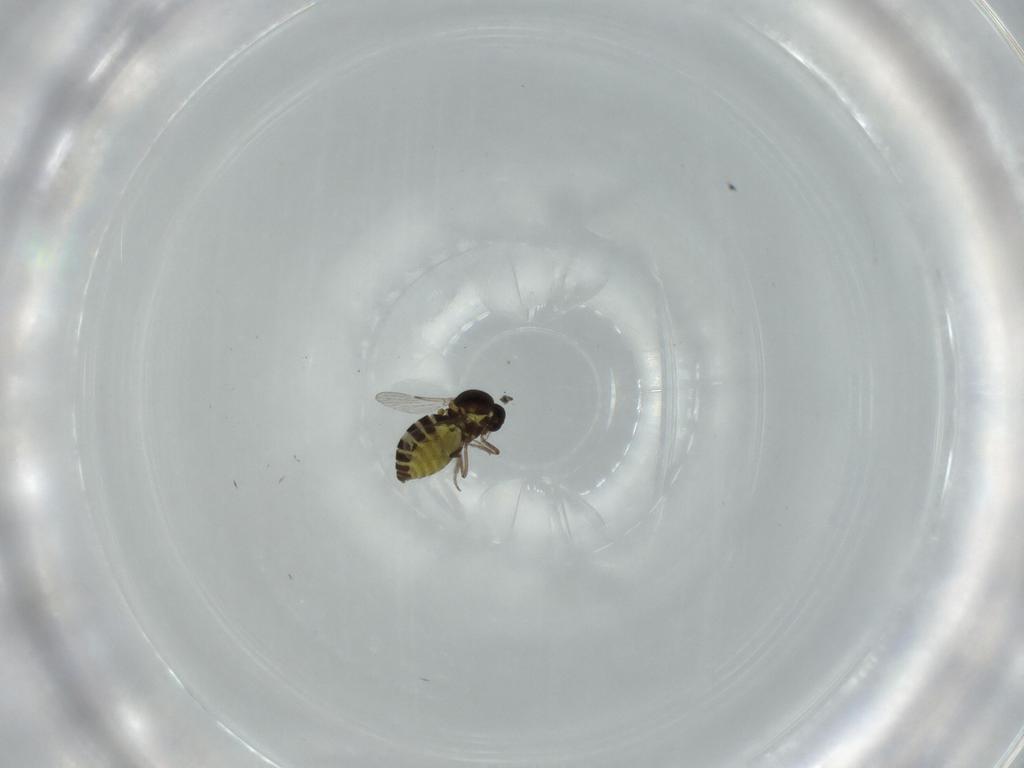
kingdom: Animalia
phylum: Arthropoda
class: Insecta
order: Diptera
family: Ceratopogonidae
